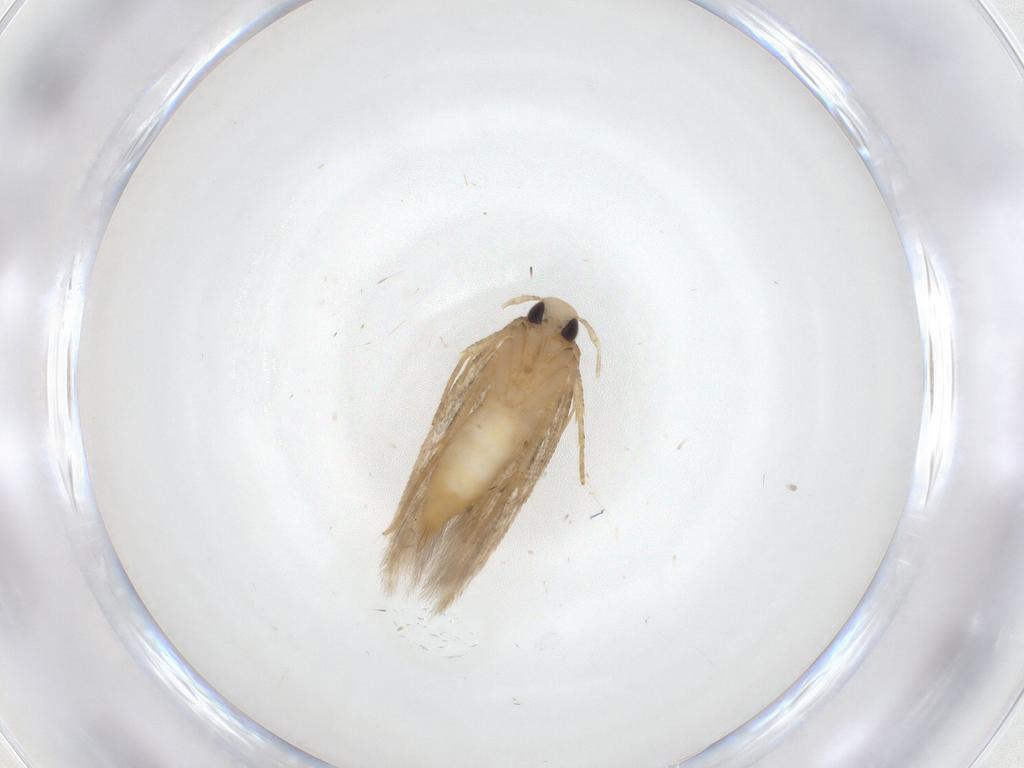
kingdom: Animalia
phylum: Arthropoda
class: Insecta
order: Lepidoptera
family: Cosmopterigidae
